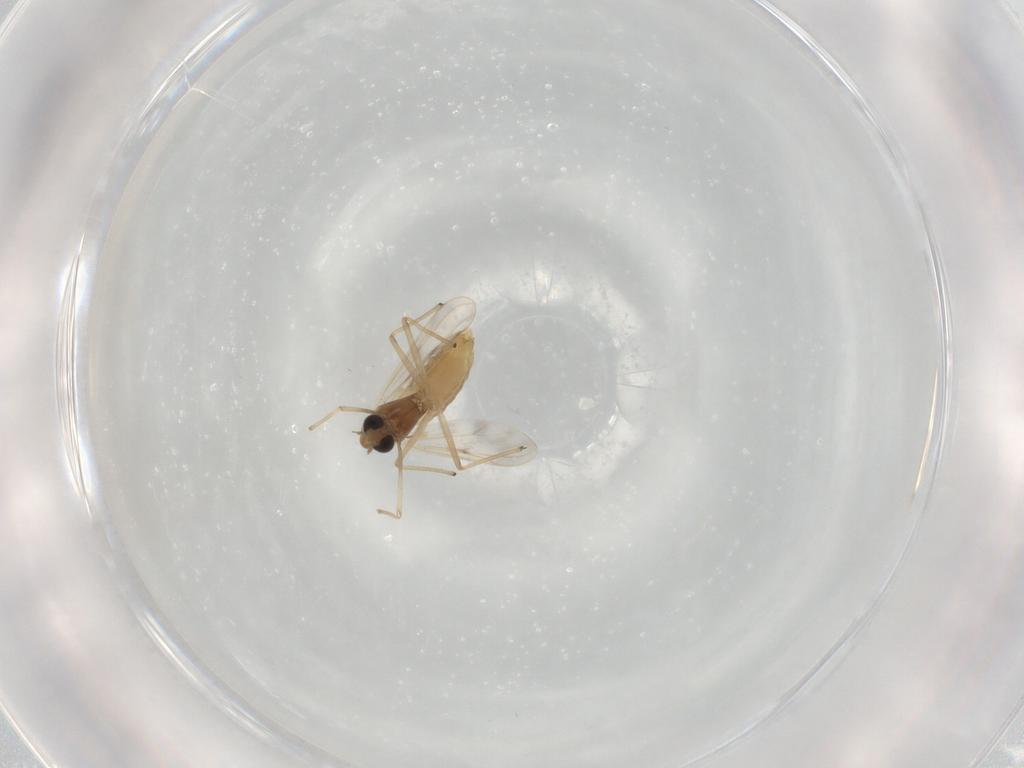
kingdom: Animalia
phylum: Arthropoda
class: Insecta
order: Diptera
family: Chironomidae
